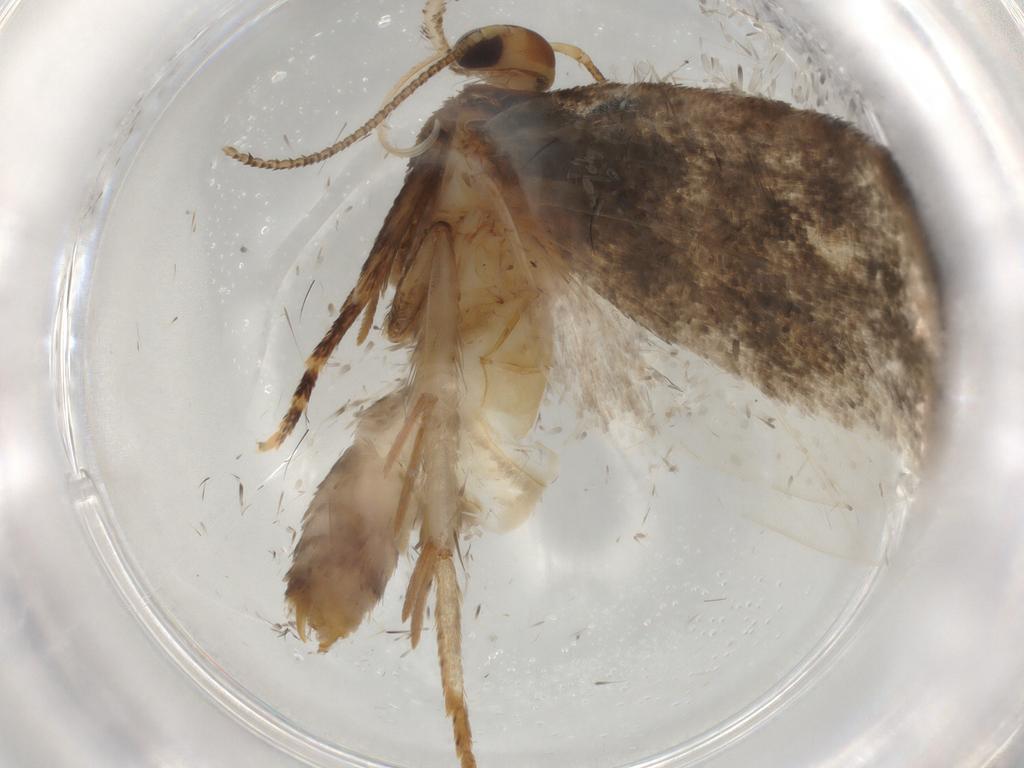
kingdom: Animalia
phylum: Arthropoda
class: Insecta
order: Lepidoptera
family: Oecophoridae
